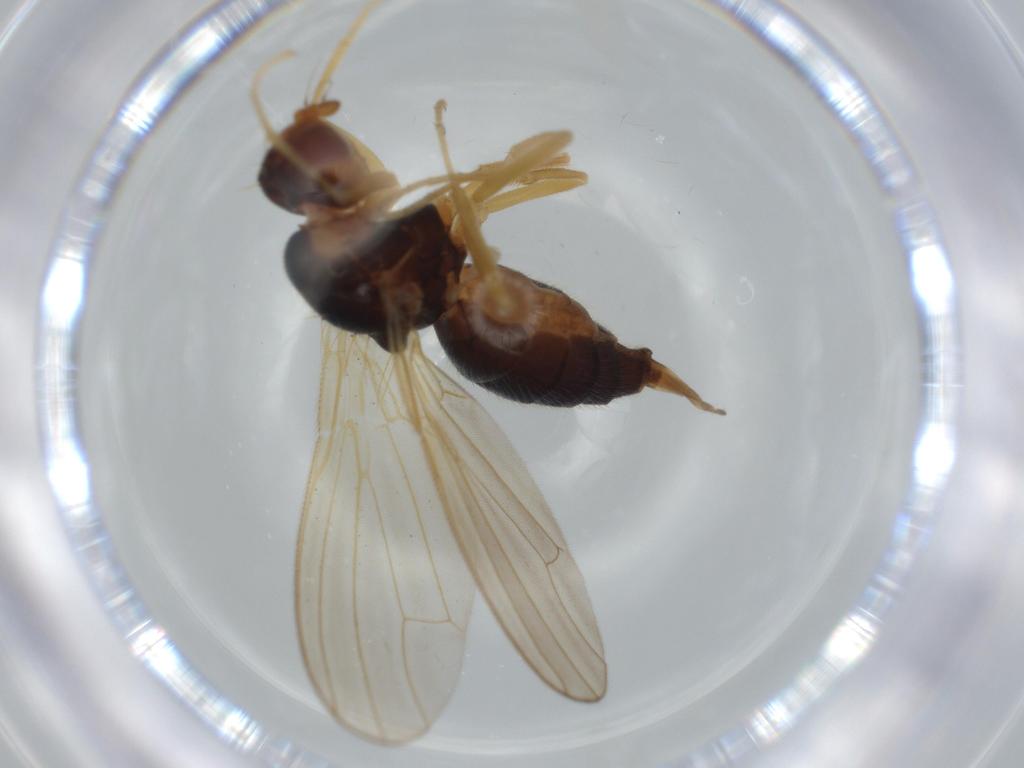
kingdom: Animalia
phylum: Arthropoda
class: Insecta
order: Diptera
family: Psilidae
